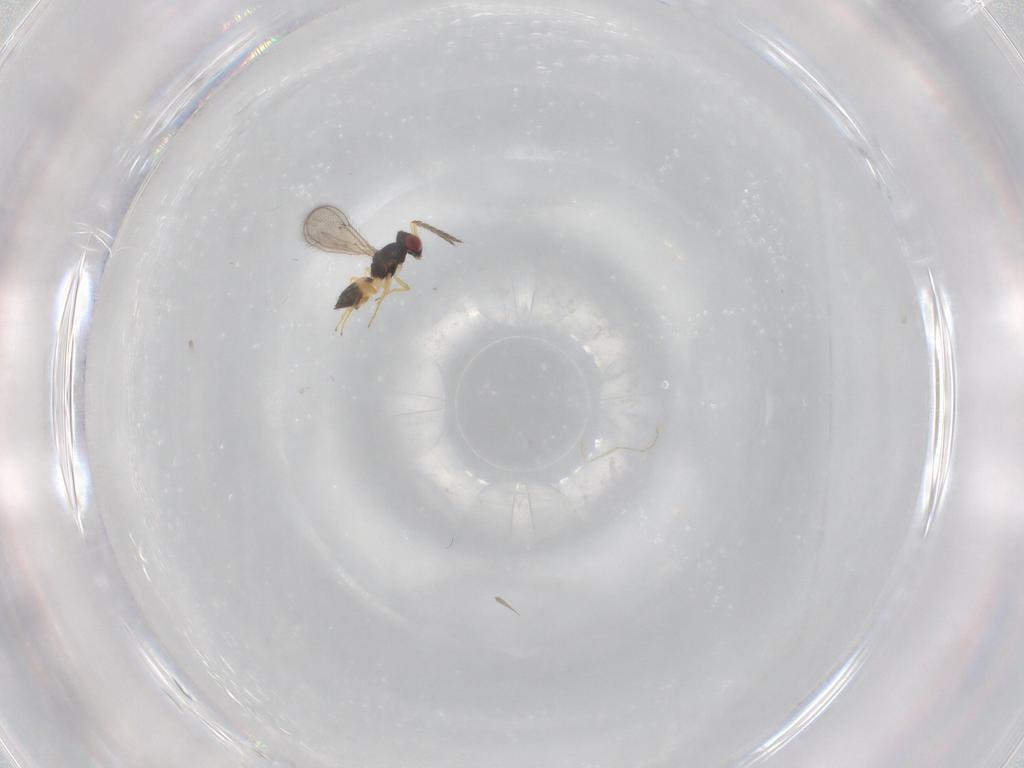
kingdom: Animalia
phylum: Arthropoda
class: Insecta
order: Hymenoptera
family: Eulophidae
